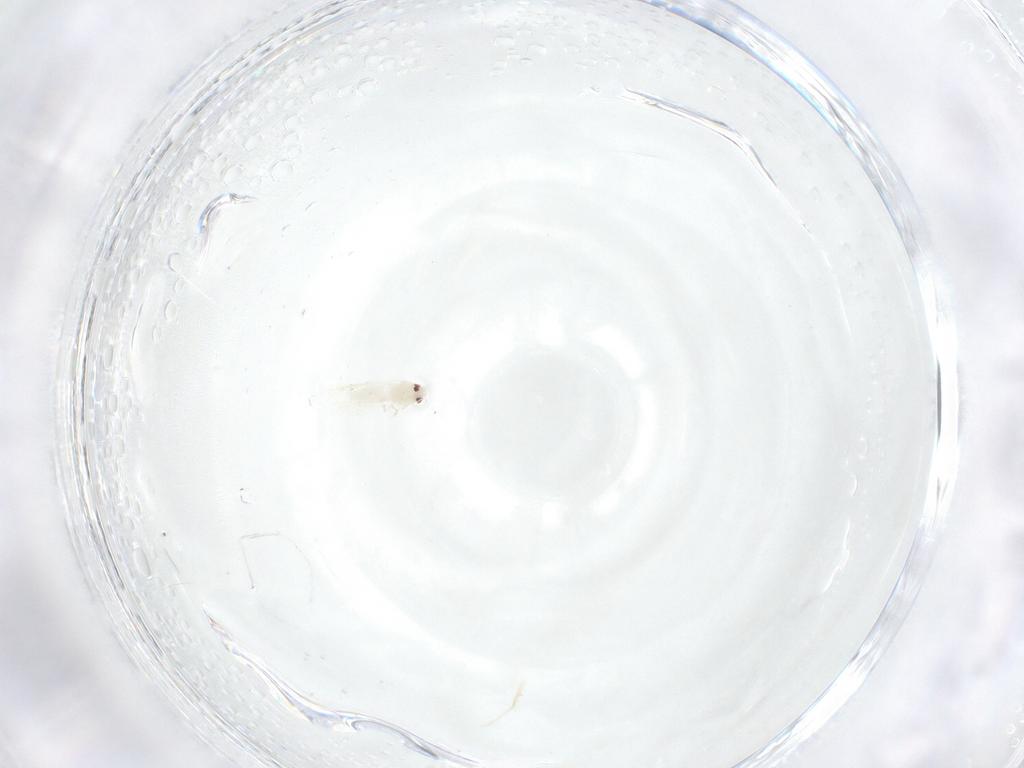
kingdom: Animalia
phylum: Arthropoda
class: Insecta
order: Hemiptera
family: Aleyrodidae
